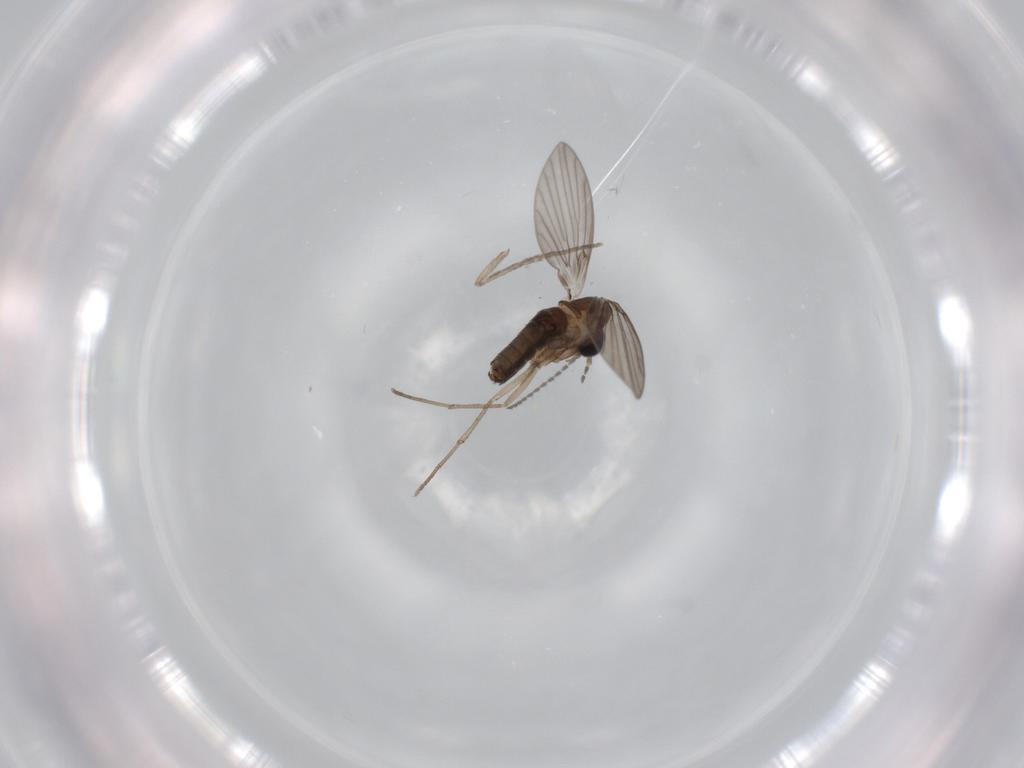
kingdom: Animalia
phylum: Arthropoda
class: Insecta
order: Diptera
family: Psychodidae
